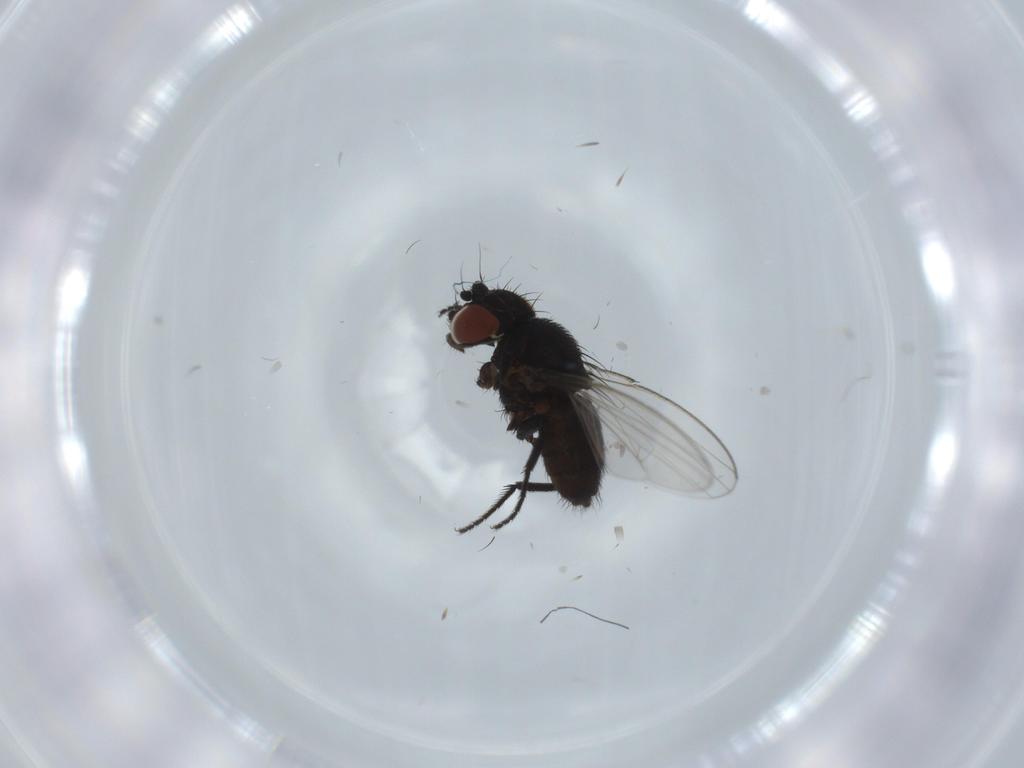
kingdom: Animalia
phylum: Arthropoda
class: Insecta
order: Diptera
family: Milichiidae
